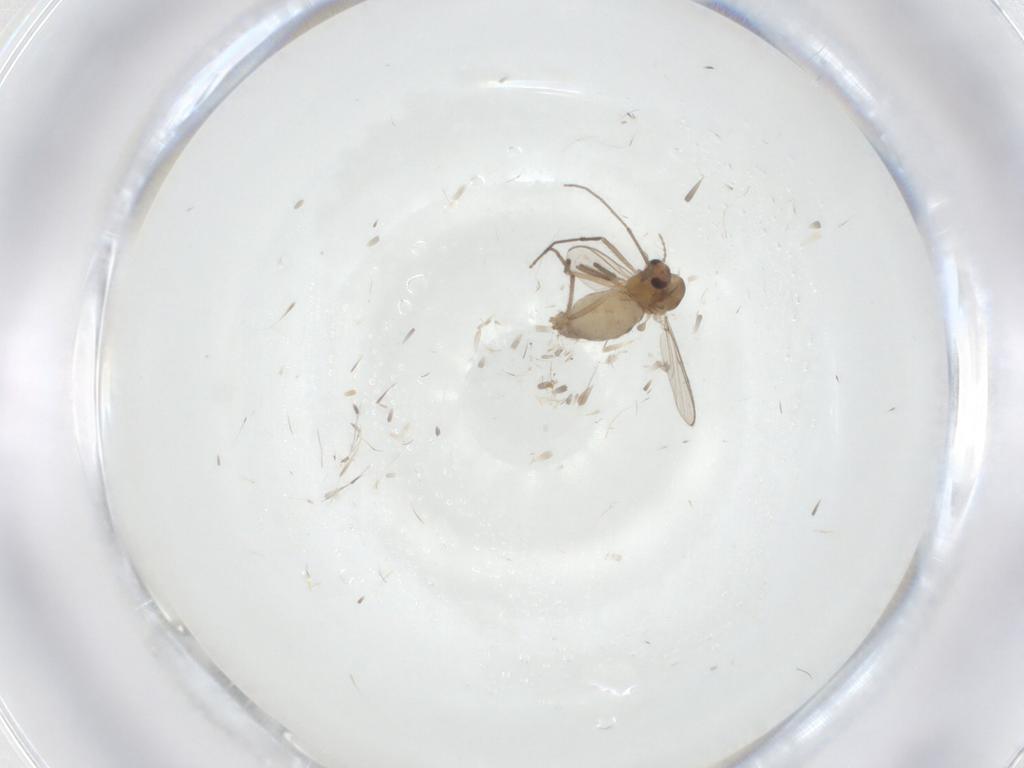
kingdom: Animalia
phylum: Arthropoda
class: Insecta
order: Diptera
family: Chironomidae
